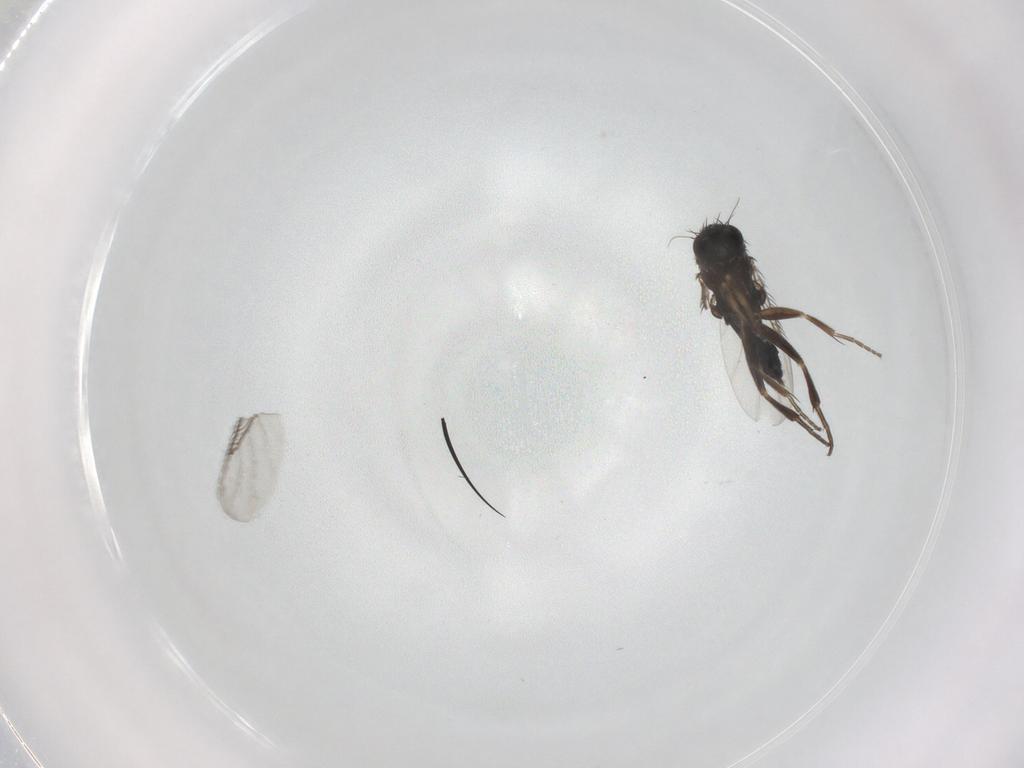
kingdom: Animalia
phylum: Arthropoda
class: Insecta
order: Diptera
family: Phoridae
